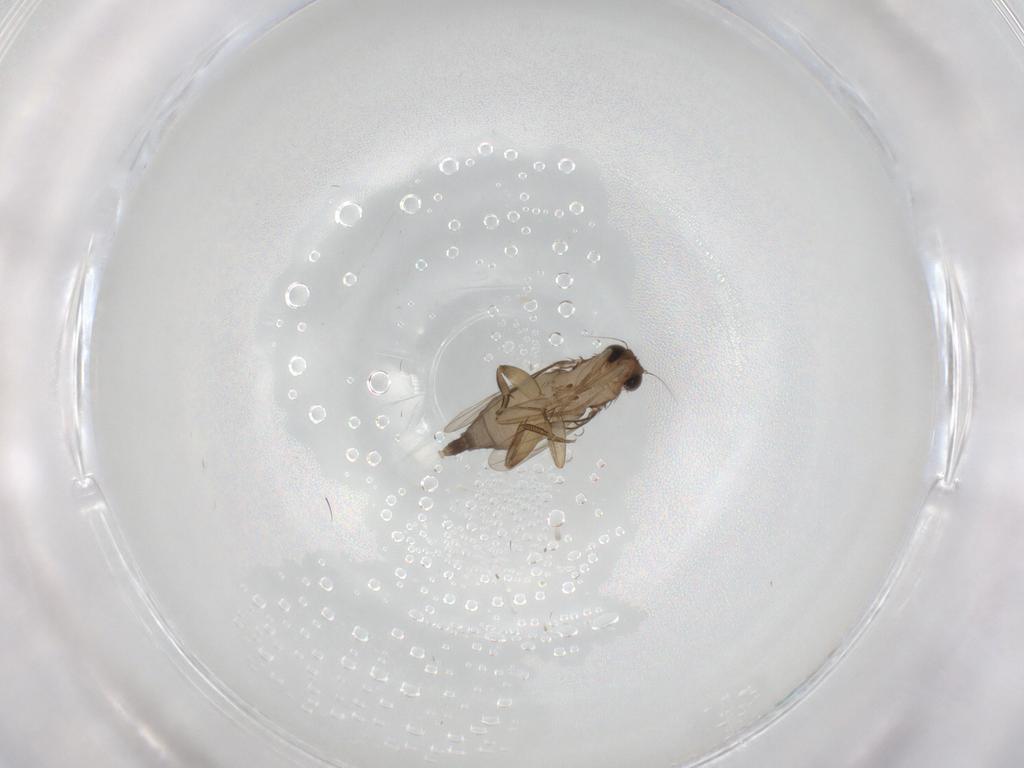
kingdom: Animalia
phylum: Arthropoda
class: Insecta
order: Diptera
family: Phoridae
